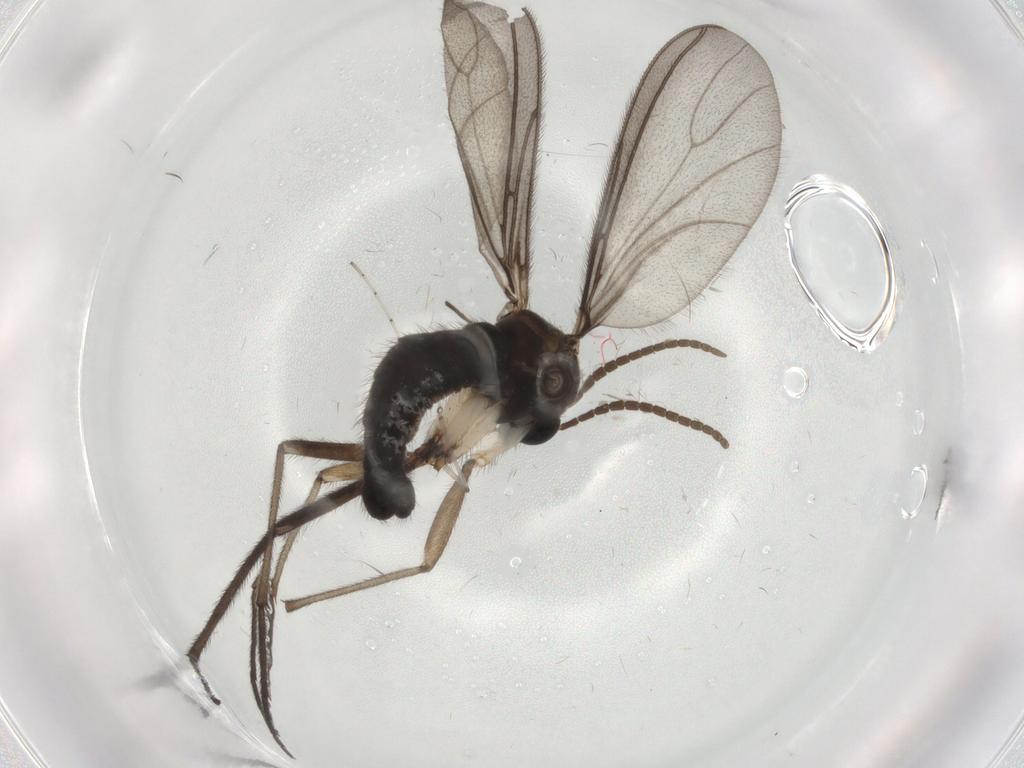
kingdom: Animalia
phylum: Arthropoda
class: Insecta
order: Diptera
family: Sciaridae
